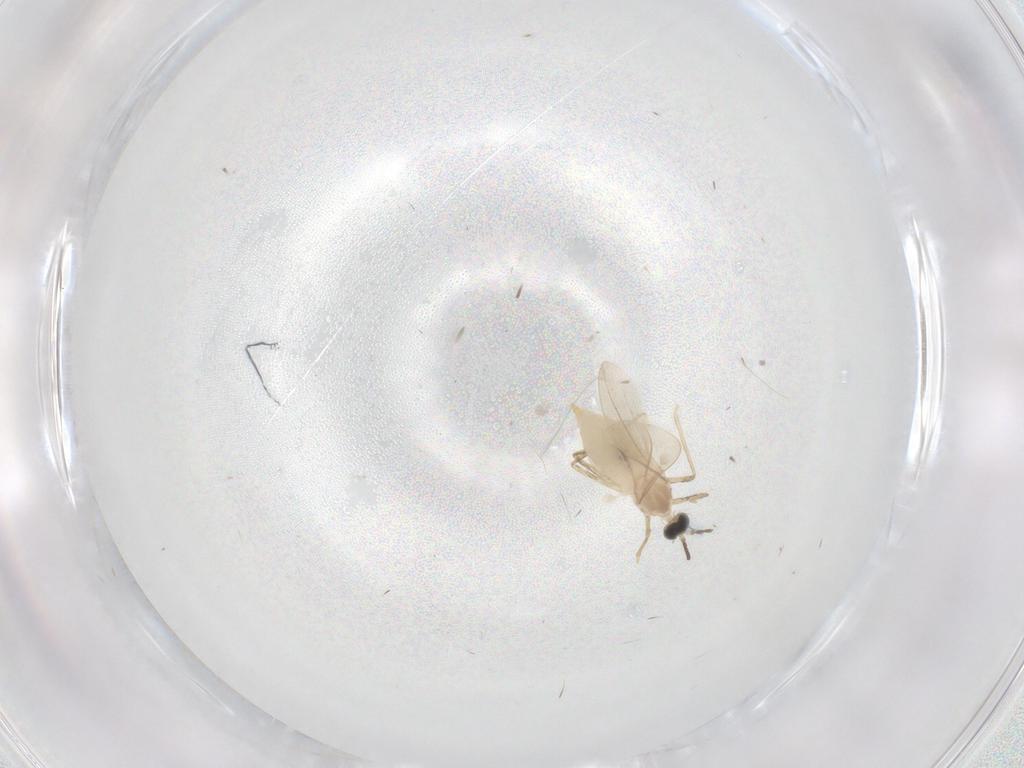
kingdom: Animalia
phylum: Arthropoda
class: Insecta
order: Diptera
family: Cecidomyiidae
